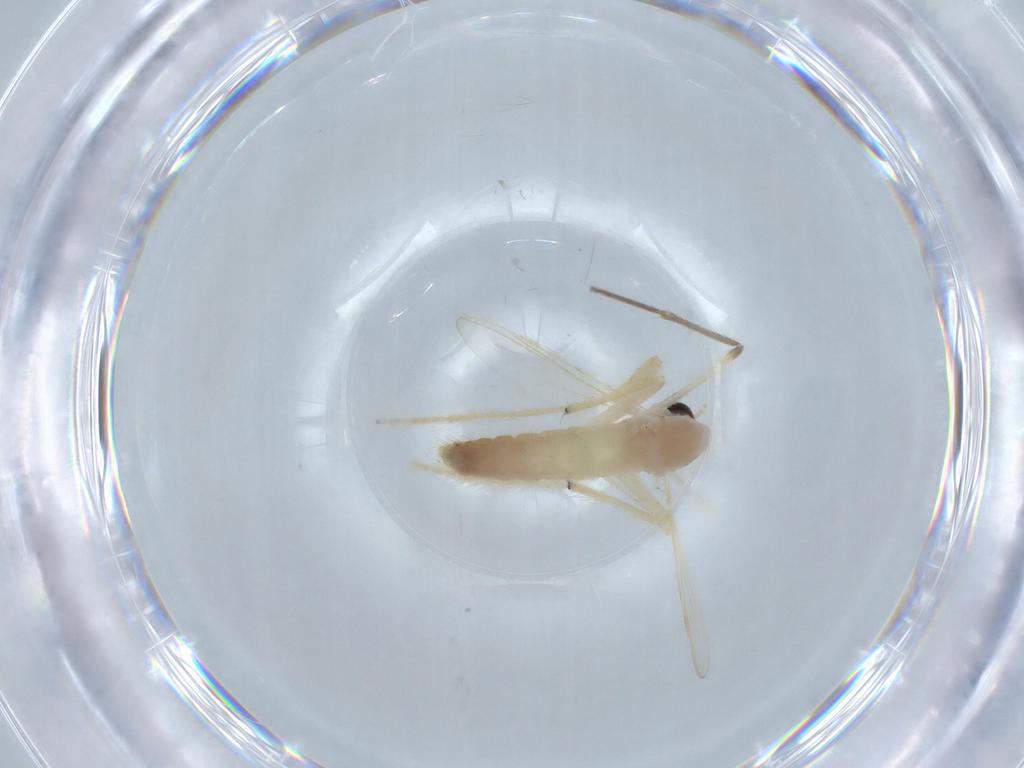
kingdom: Animalia
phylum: Arthropoda
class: Insecta
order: Diptera
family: Chironomidae
